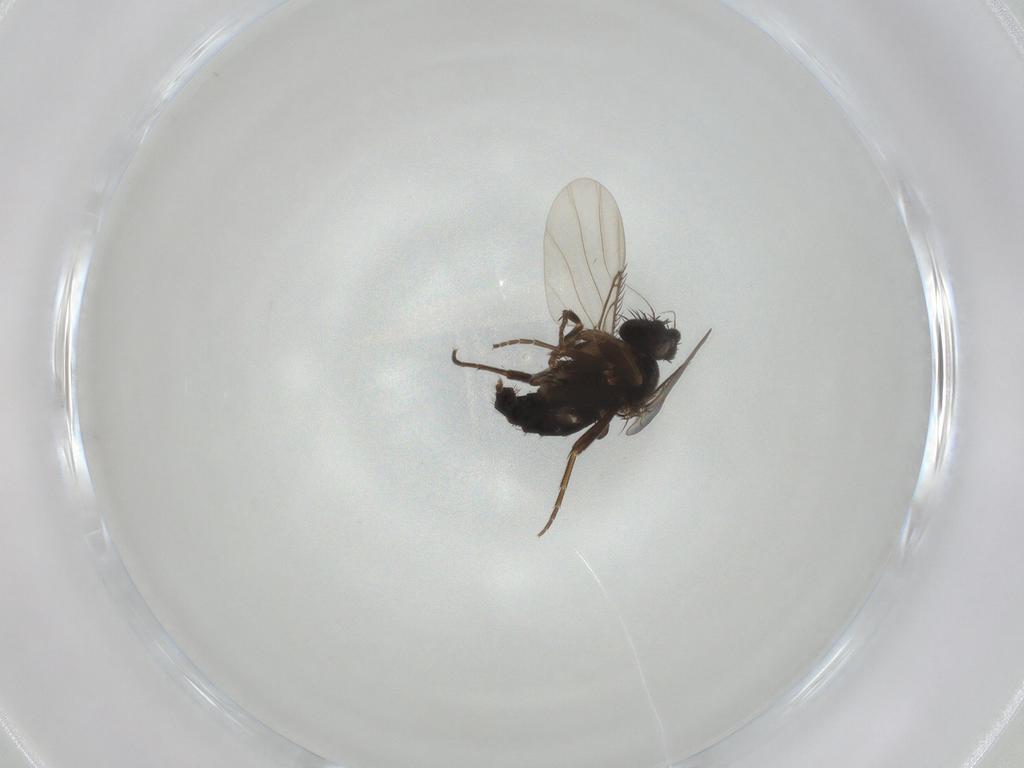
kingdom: Animalia
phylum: Arthropoda
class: Insecta
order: Diptera
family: Phoridae
